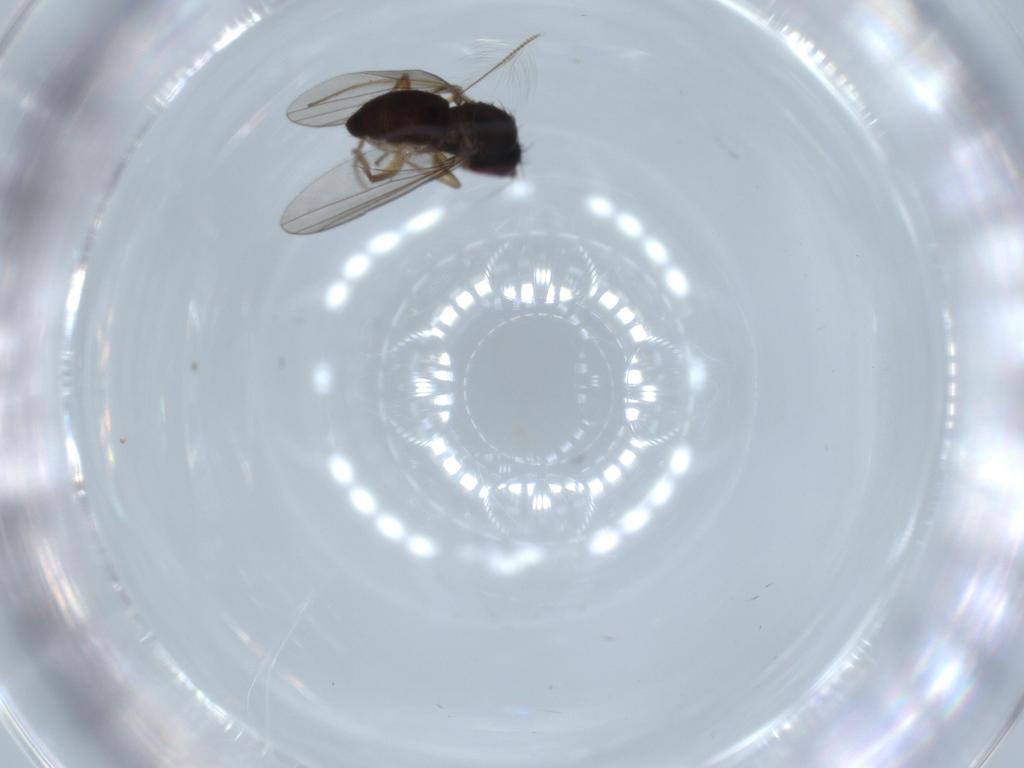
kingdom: Animalia
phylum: Arthropoda
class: Insecta
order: Diptera
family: Dolichopodidae
